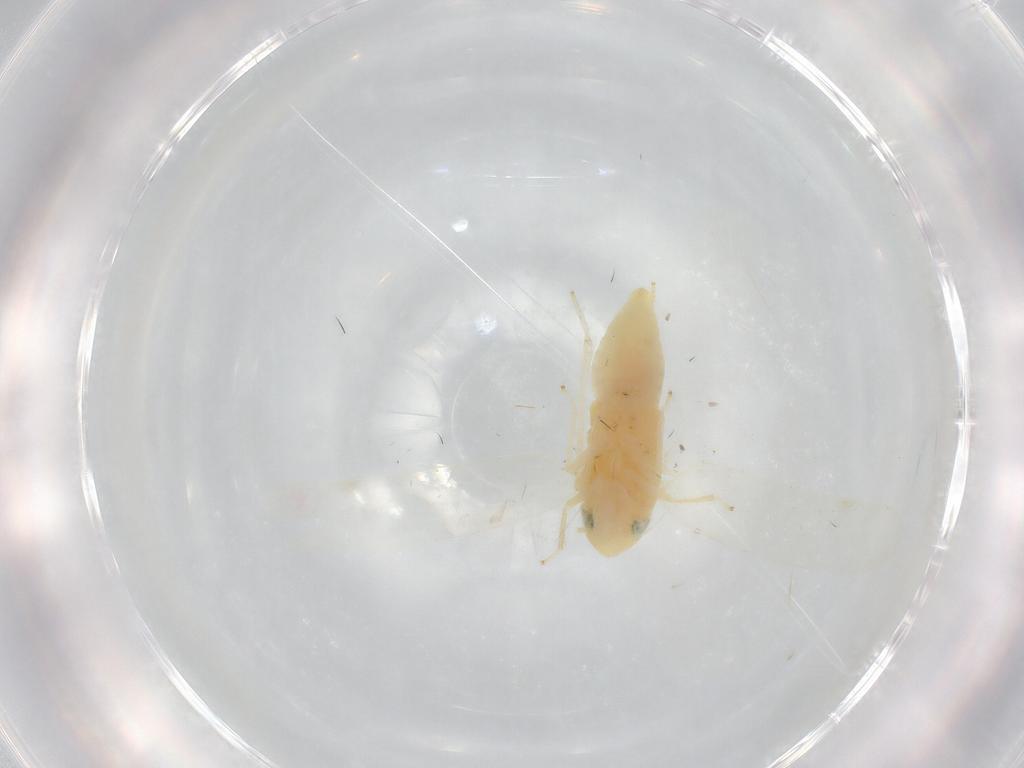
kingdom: Animalia
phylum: Arthropoda
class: Insecta
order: Hemiptera
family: Cicadellidae
